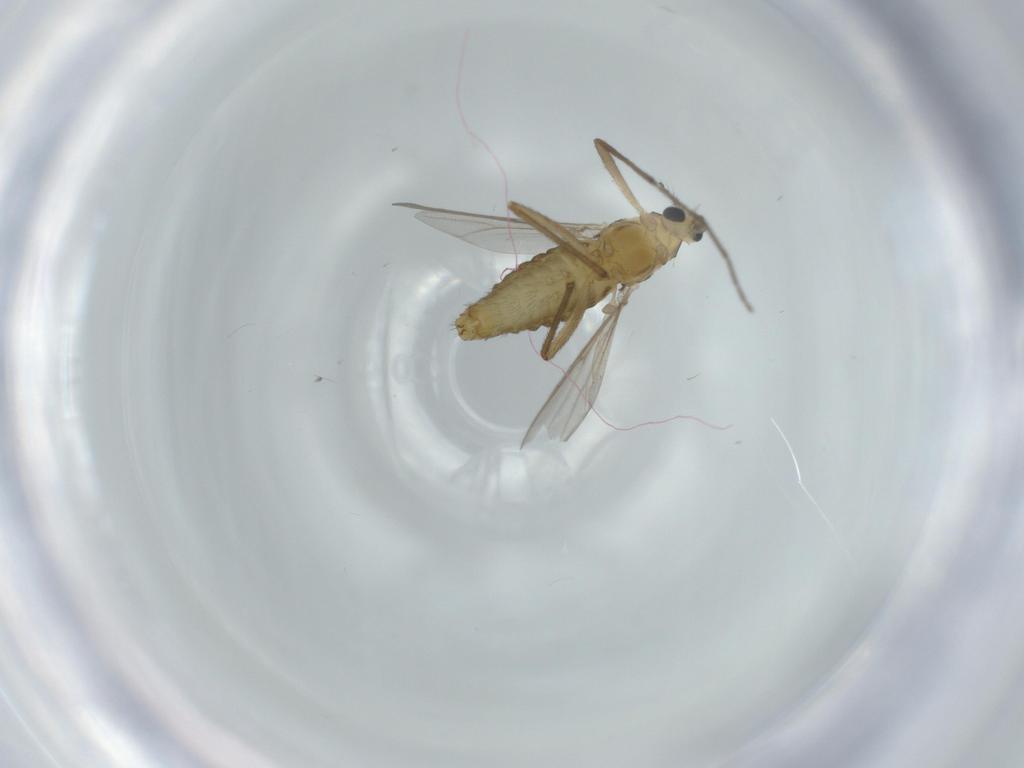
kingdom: Animalia
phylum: Arthropoda
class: Insecta
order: Diptera
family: Chironomidae
